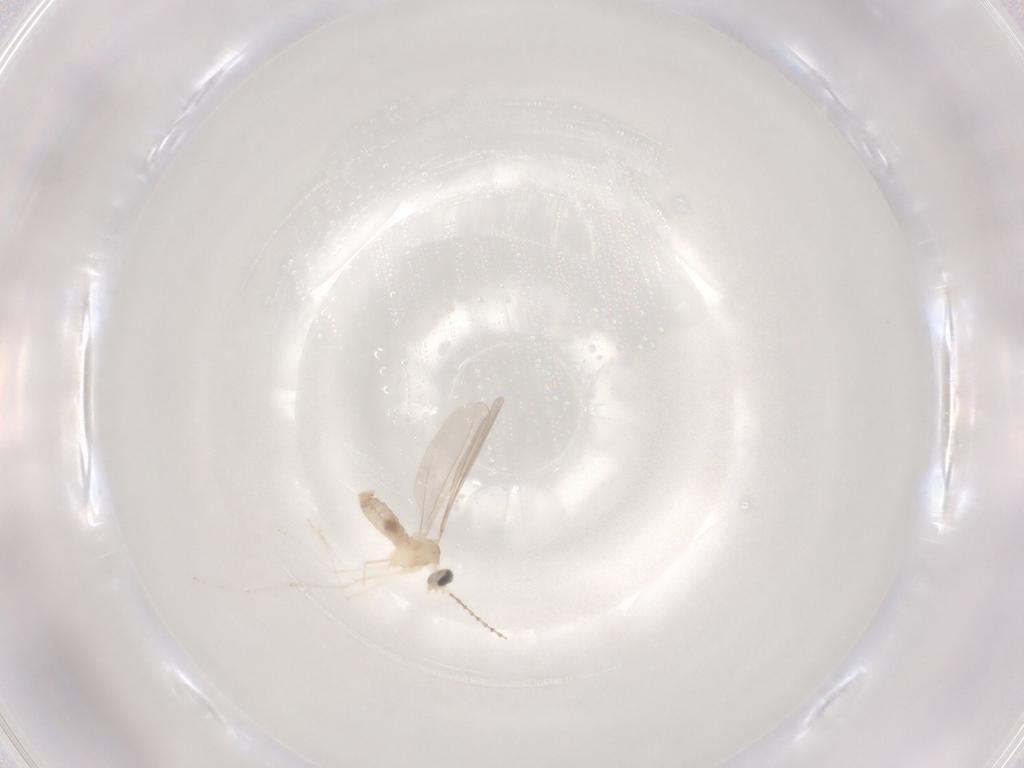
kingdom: Animalia
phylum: Arthropoda
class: Insecta
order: Diptera
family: Cecidomyiidae
